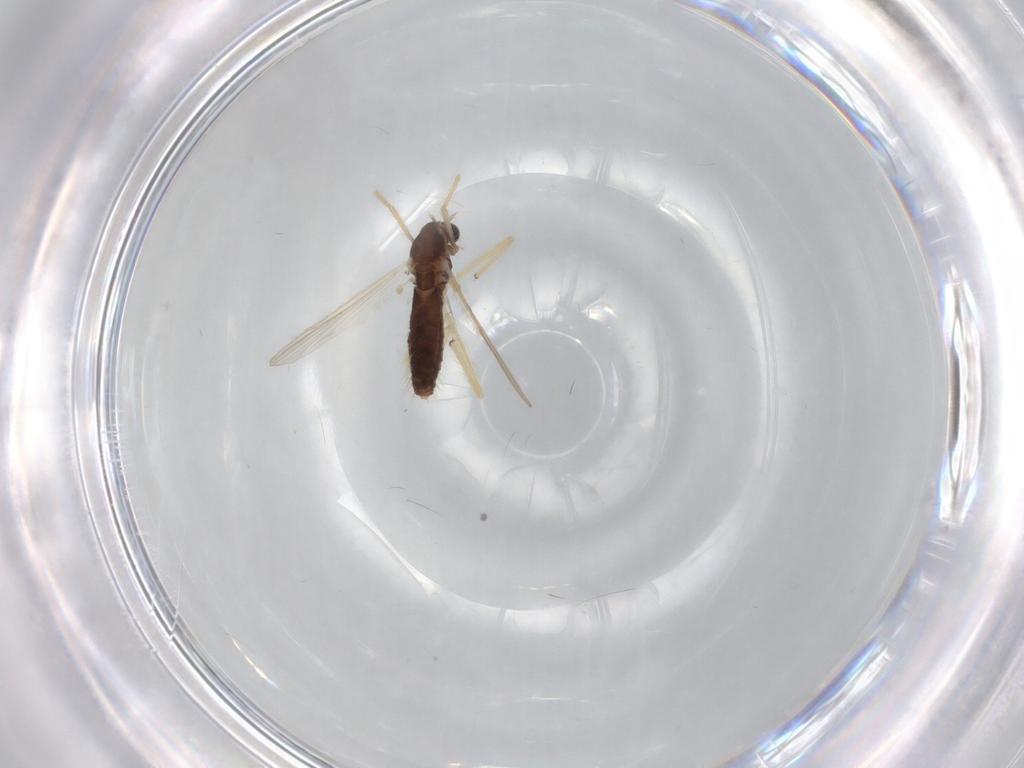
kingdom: Animalia
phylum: Arthropoda
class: Insecta
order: Diptera
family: Chironomidae
